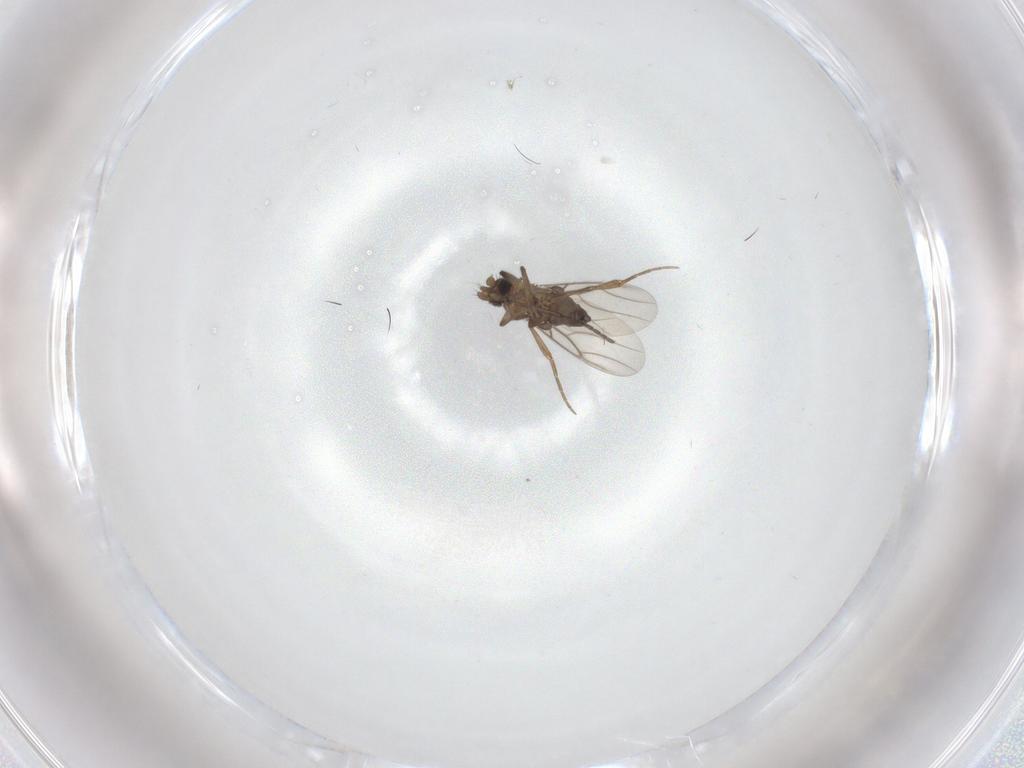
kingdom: Animalia
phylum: Arthropoda
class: Insecta
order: Diptera
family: Sciaridae
